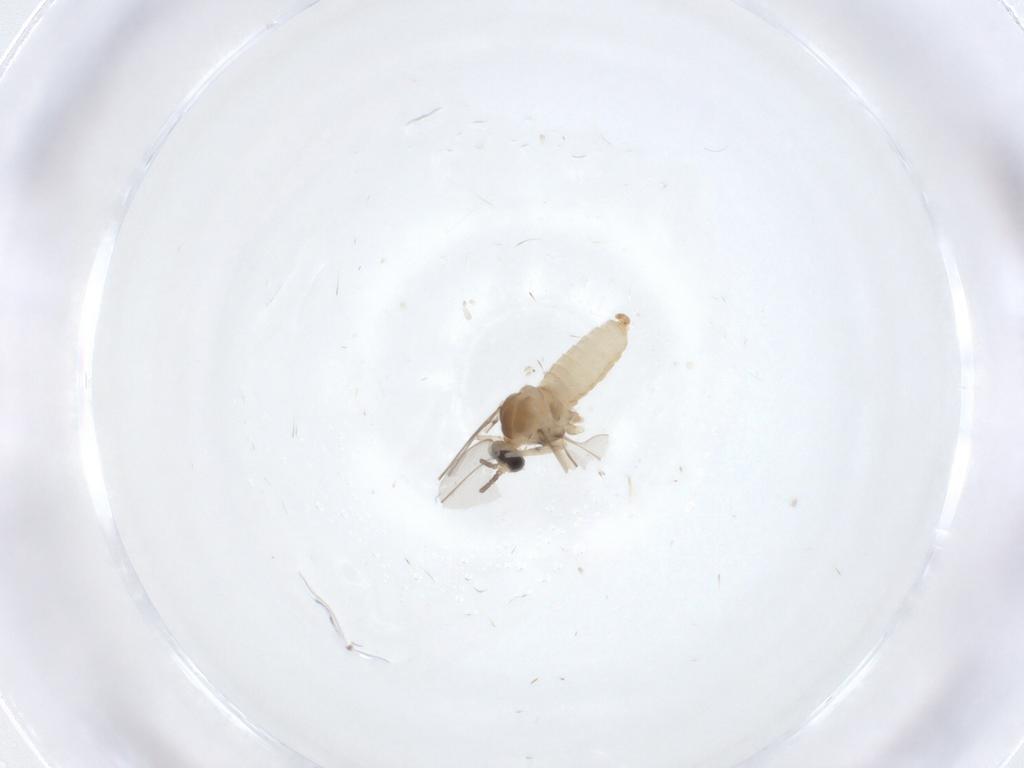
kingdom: Animalia
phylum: Arthropoda
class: Insecta
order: Diptera
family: Cecidomyiidae
